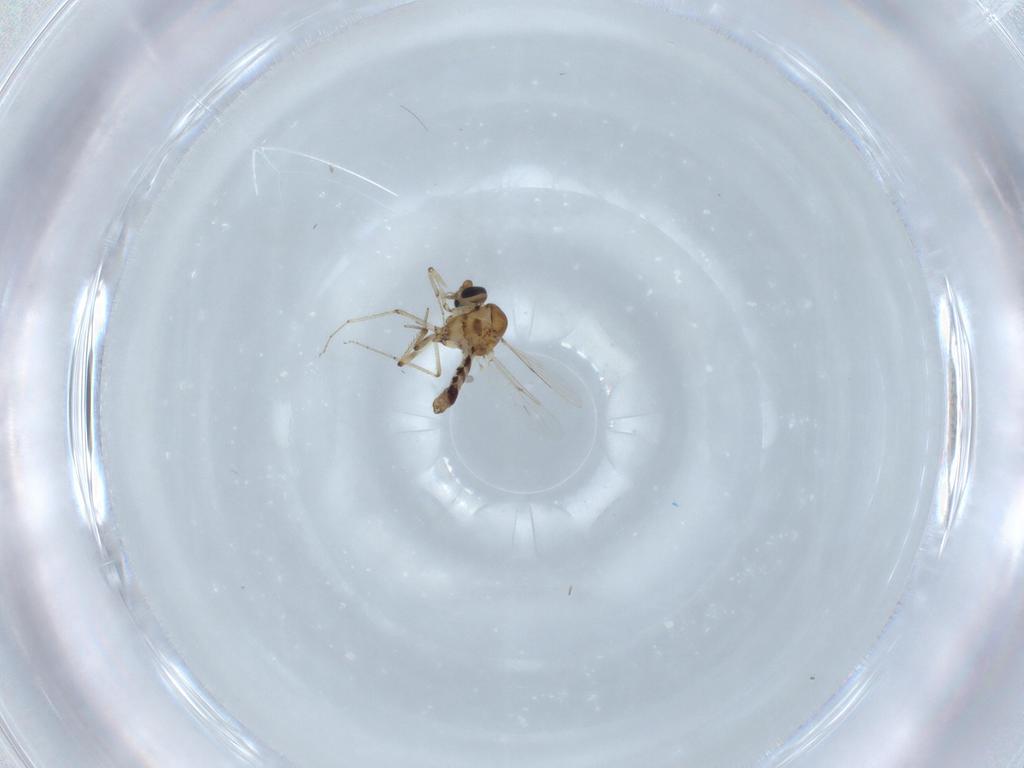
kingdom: Animalia
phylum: Arthropoda
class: Insecta
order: Diptera
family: Ceratopogonidae
